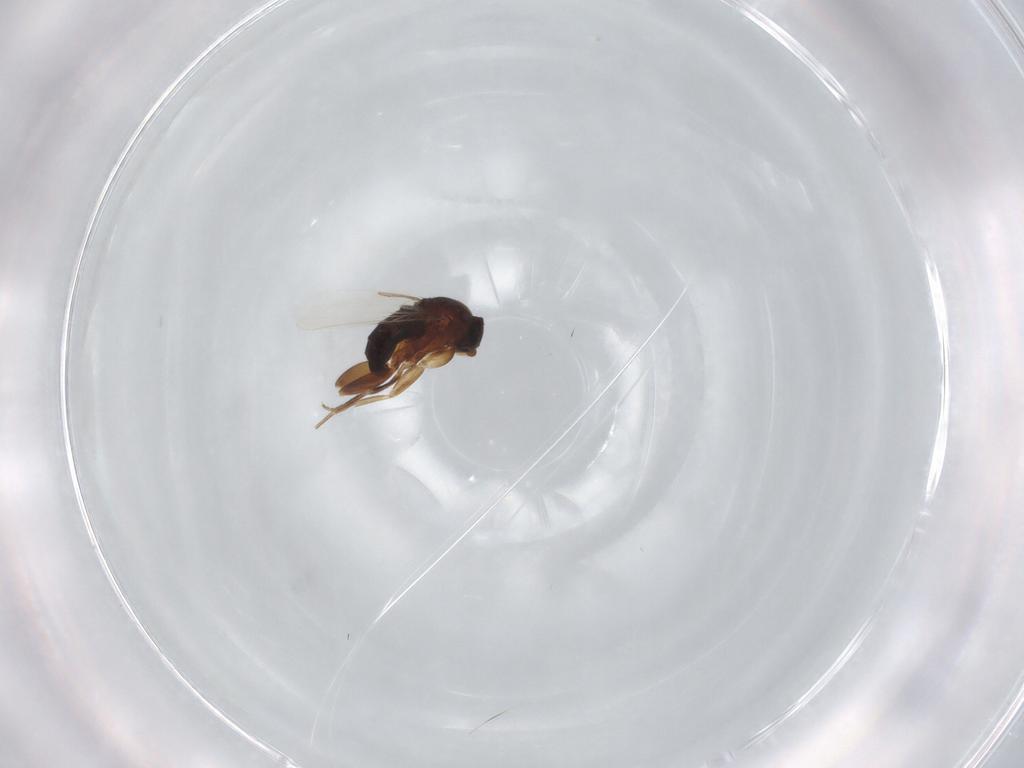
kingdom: Animalia
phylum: Arthropoda
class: Insecta
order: Diptera
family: Phoridae
